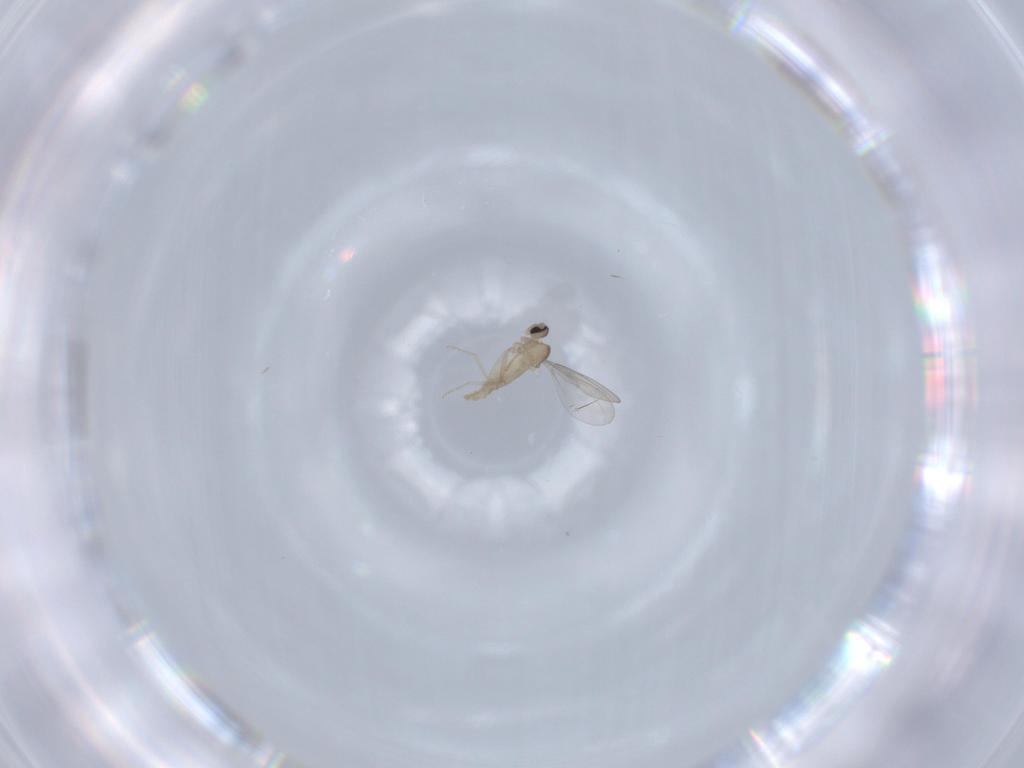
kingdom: Animalia
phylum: Arthropoda
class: Insecta
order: Diptera
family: Cecidomyiidae
